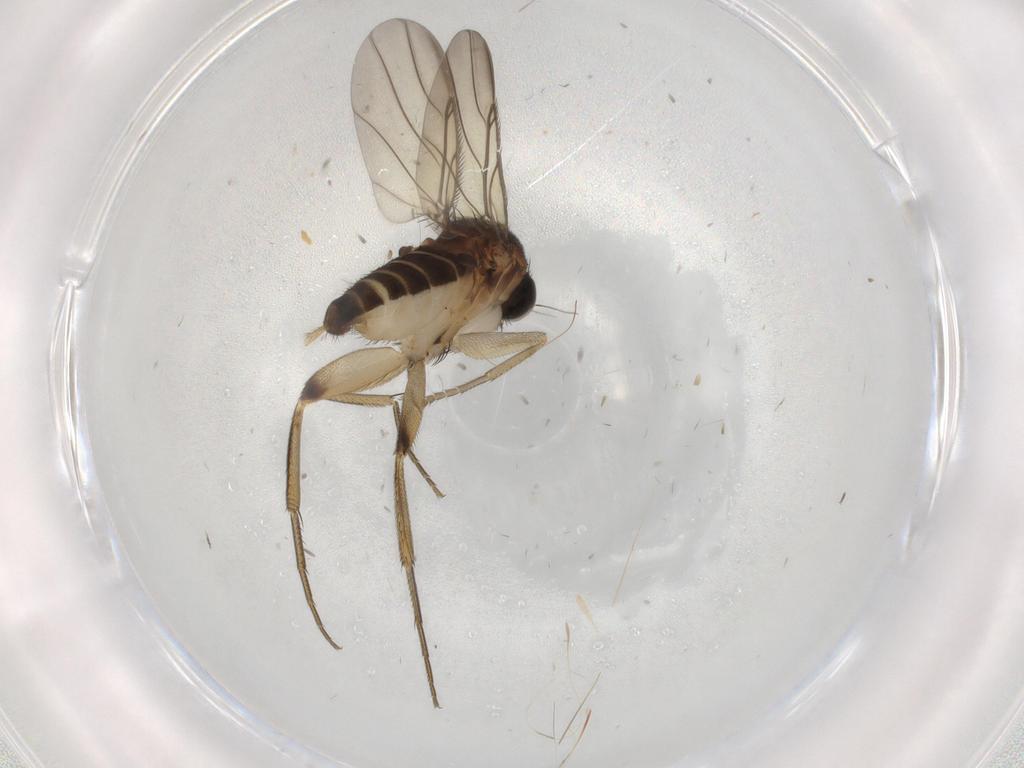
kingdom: Animalia
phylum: Arthropoda
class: Insecta
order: Diptera
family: Phoridae
